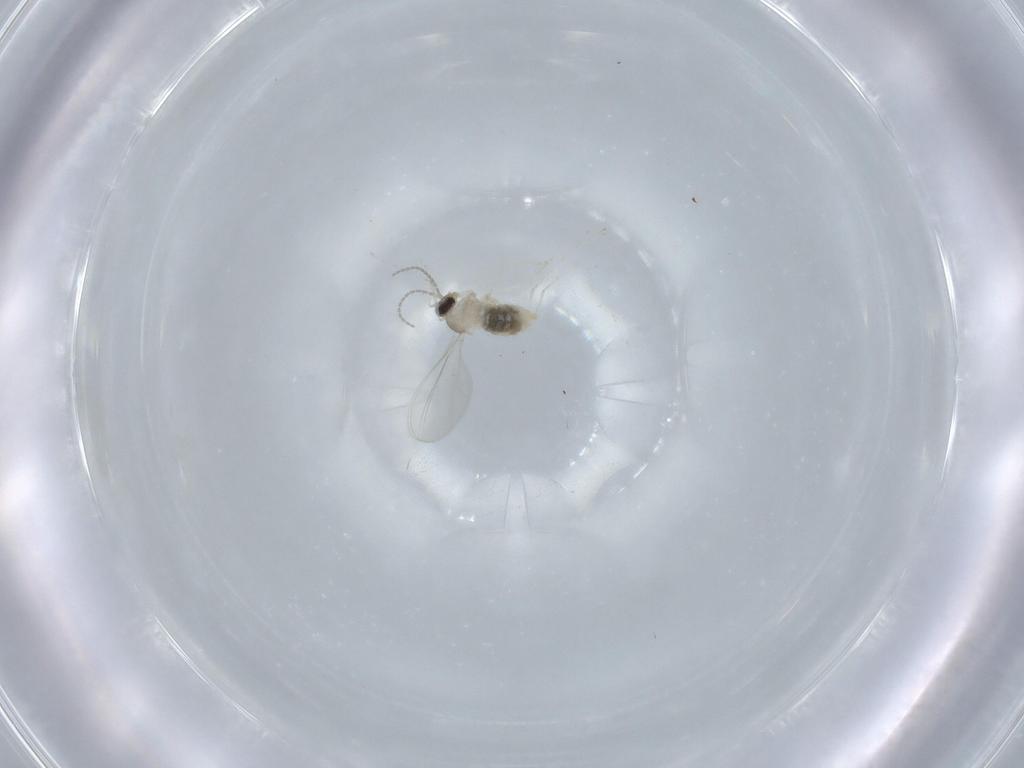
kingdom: Animalia
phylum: Arthropoda
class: Insecta
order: Diptera
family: Cecidomyiidae
